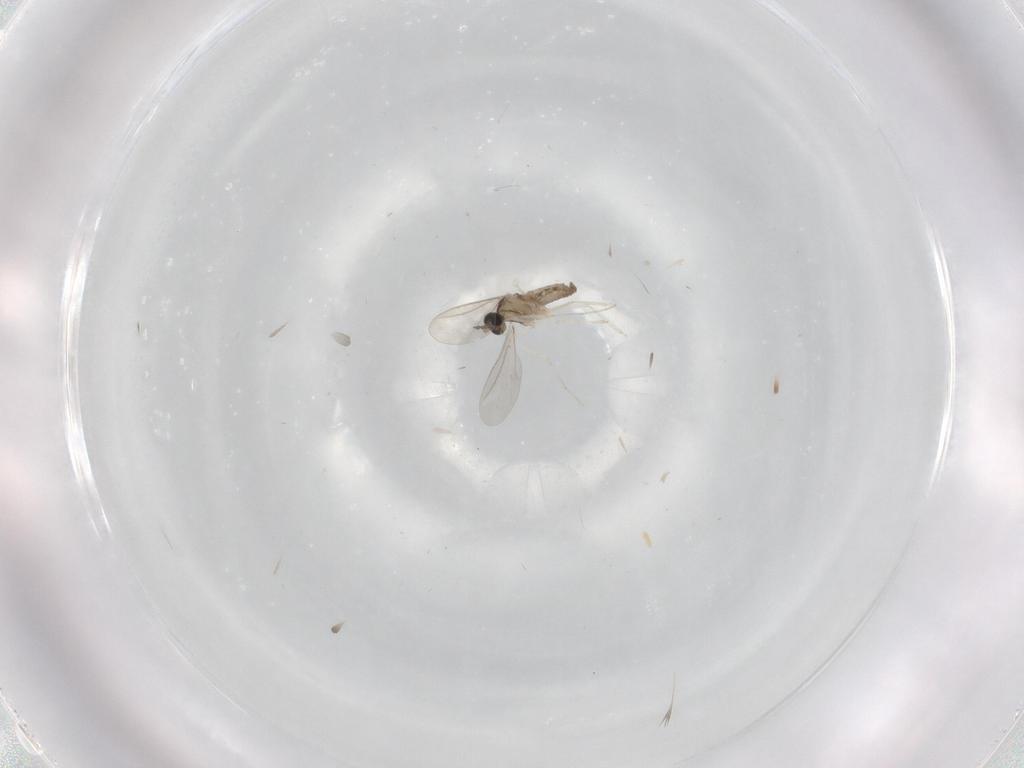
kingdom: Animalia
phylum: Arthropoda
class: Insecta
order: Diptera
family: Cecidomyiidae
